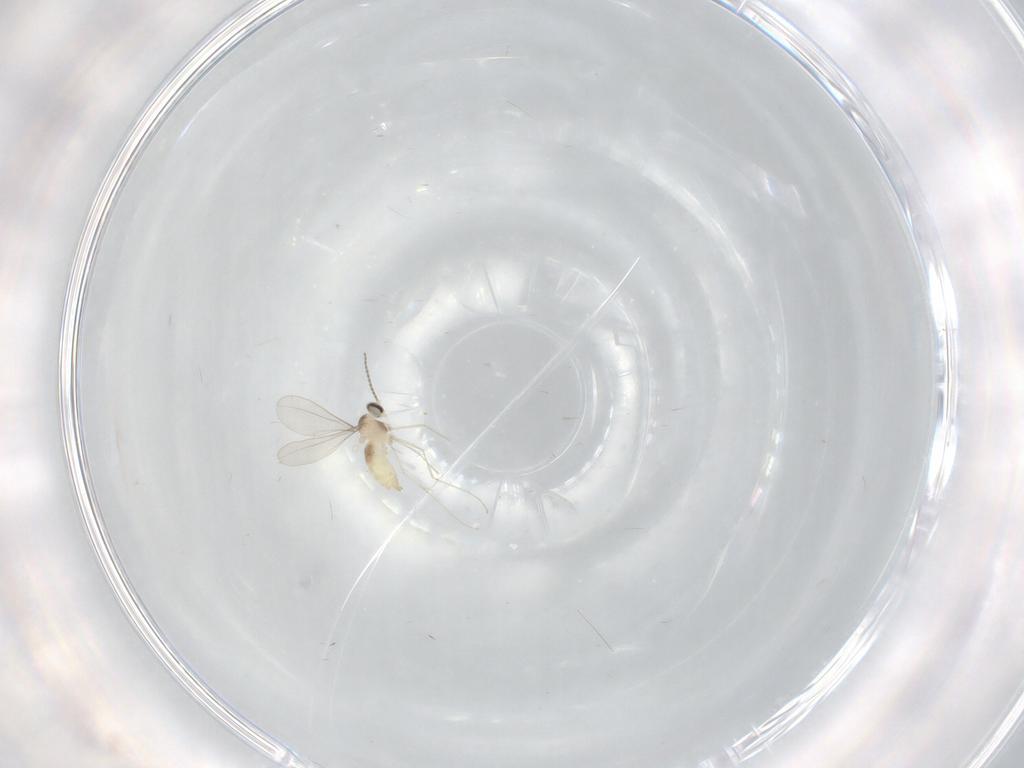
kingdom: Animalia
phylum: Arthropoda
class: Insecta
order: Diptera
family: Cecidomyiidae
